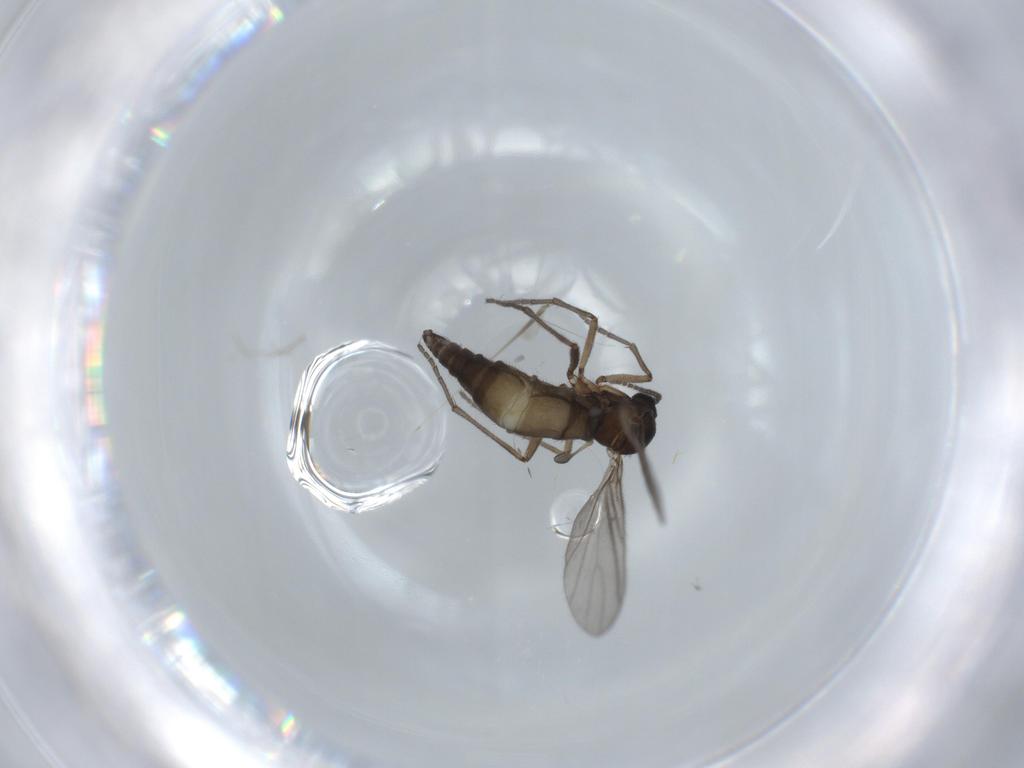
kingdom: Animalia
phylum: Arthropoda
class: Insecta
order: Diptera
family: Sciaridae
